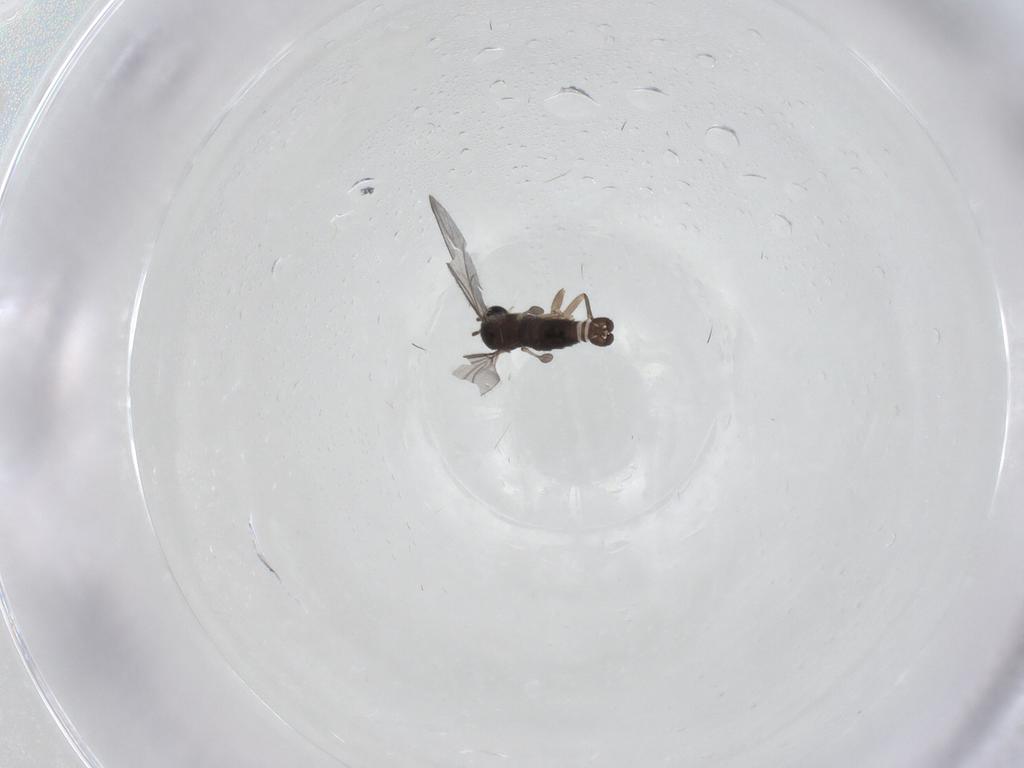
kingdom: Animalia
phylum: Arthropoda
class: Insecta
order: Diptera
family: Sciaridae
